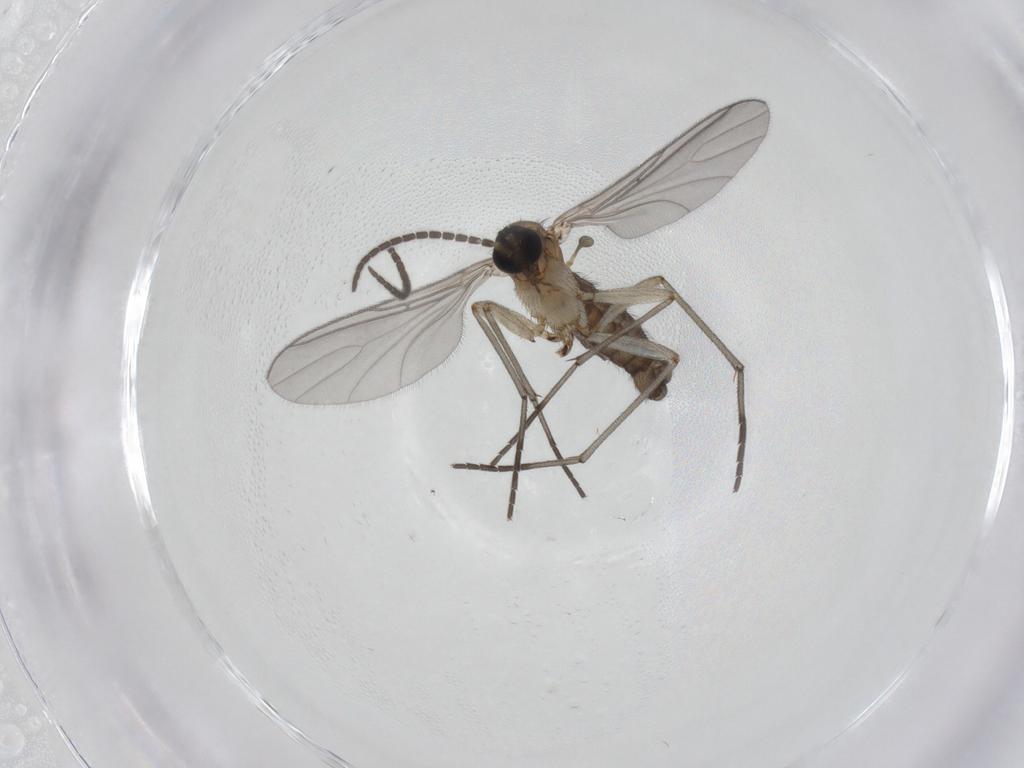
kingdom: Animalia
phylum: Arthropoda
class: Insecta
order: Diptera
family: Sciaridae
